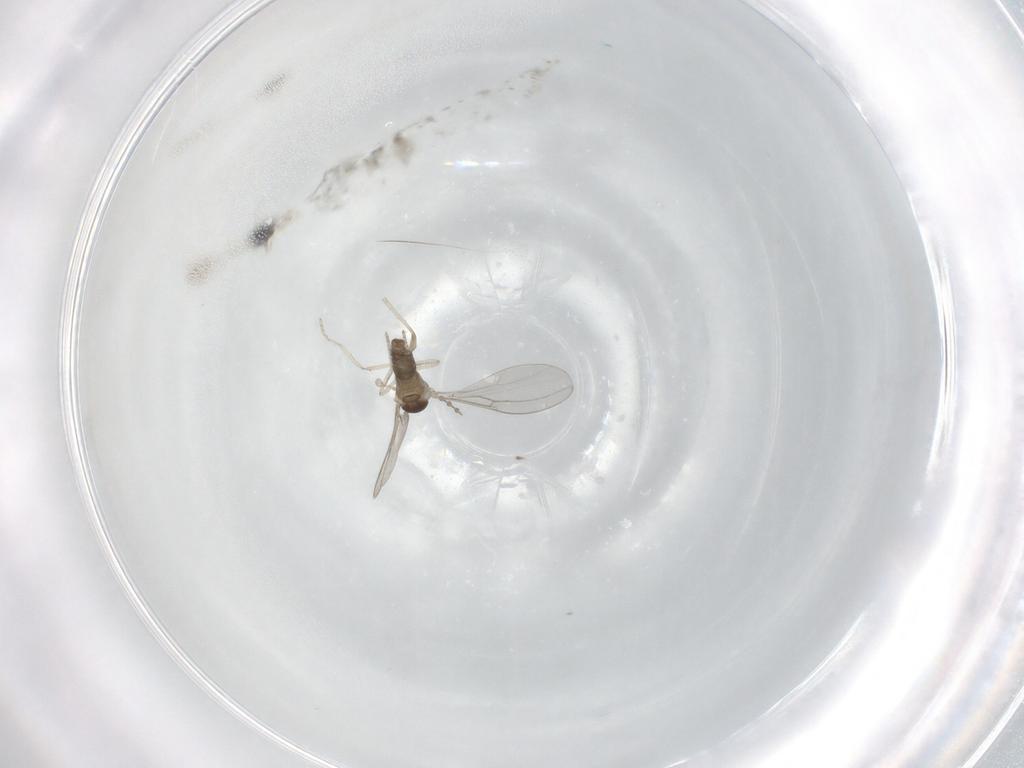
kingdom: Animalia
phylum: Arthropoda
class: Insecta
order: Diptera
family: Cecidomyiidae
